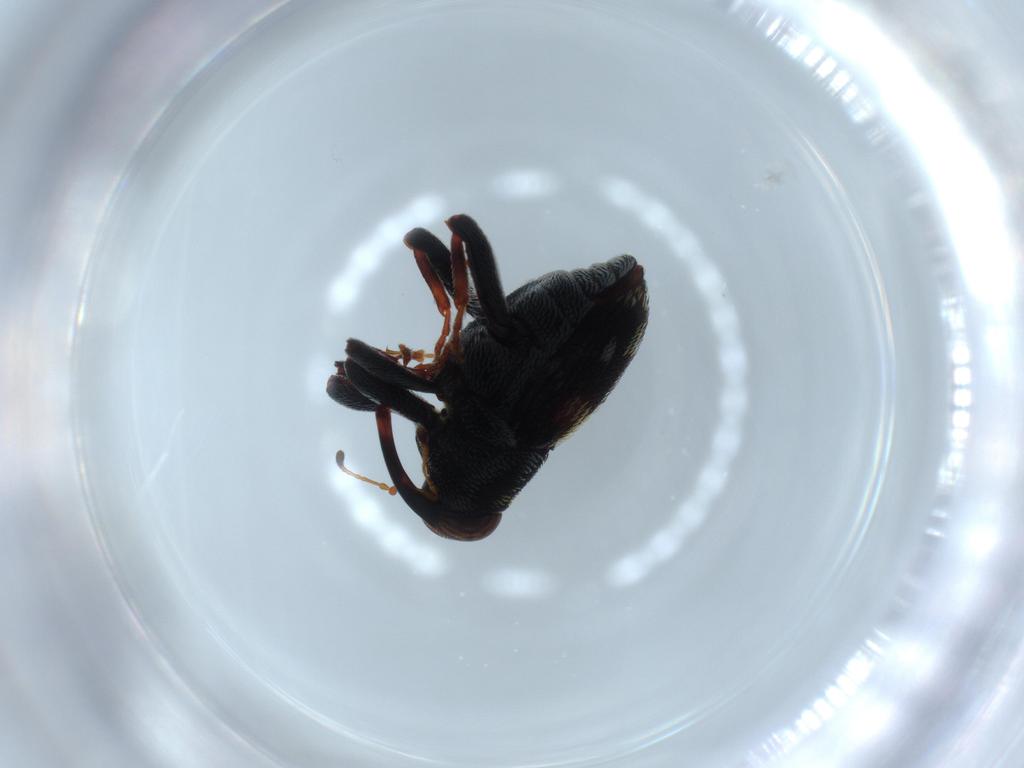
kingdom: Animalia
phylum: Arthropoda
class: Insecta
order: Coleoptera
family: Curculionidae
